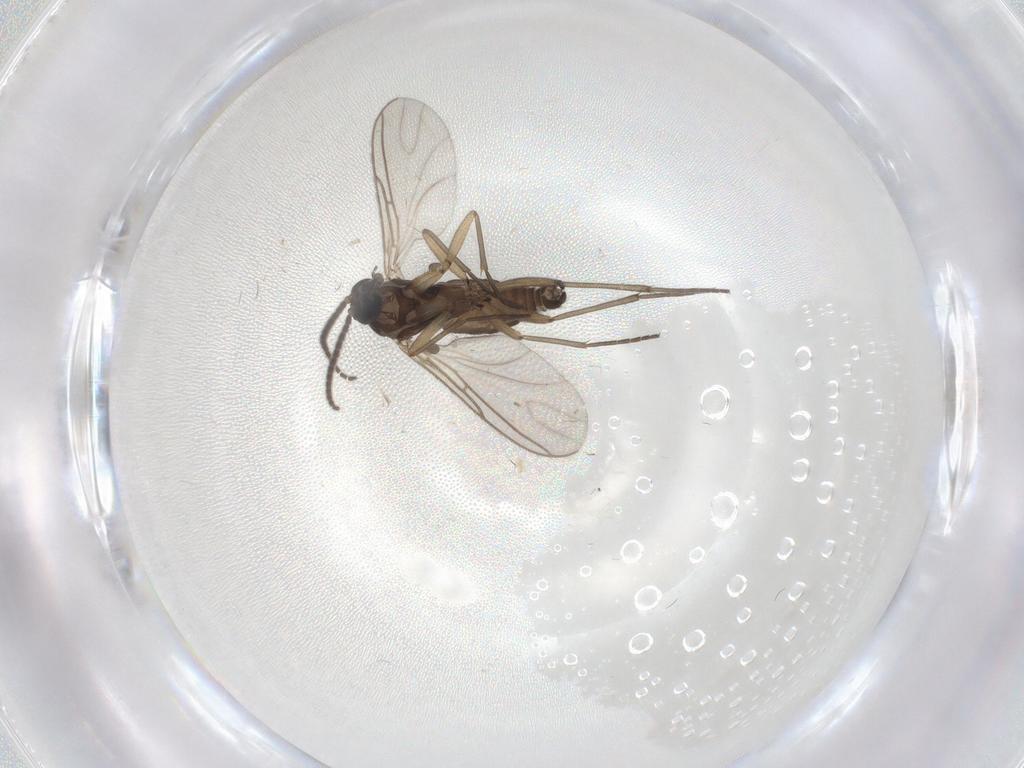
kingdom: Animalia
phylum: Arthropoda
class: Insecta
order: Diptera
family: Sciaridae
